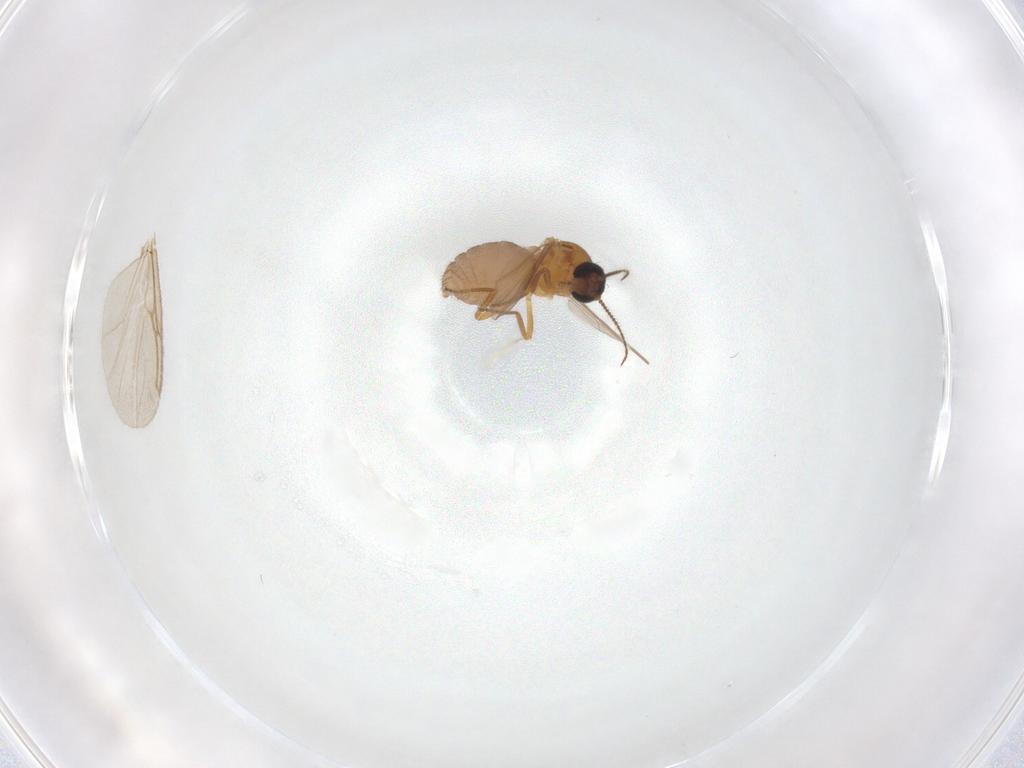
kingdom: Animalia
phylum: Arthropoda
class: Insecta
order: Diptera
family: Ceratopogonidae
